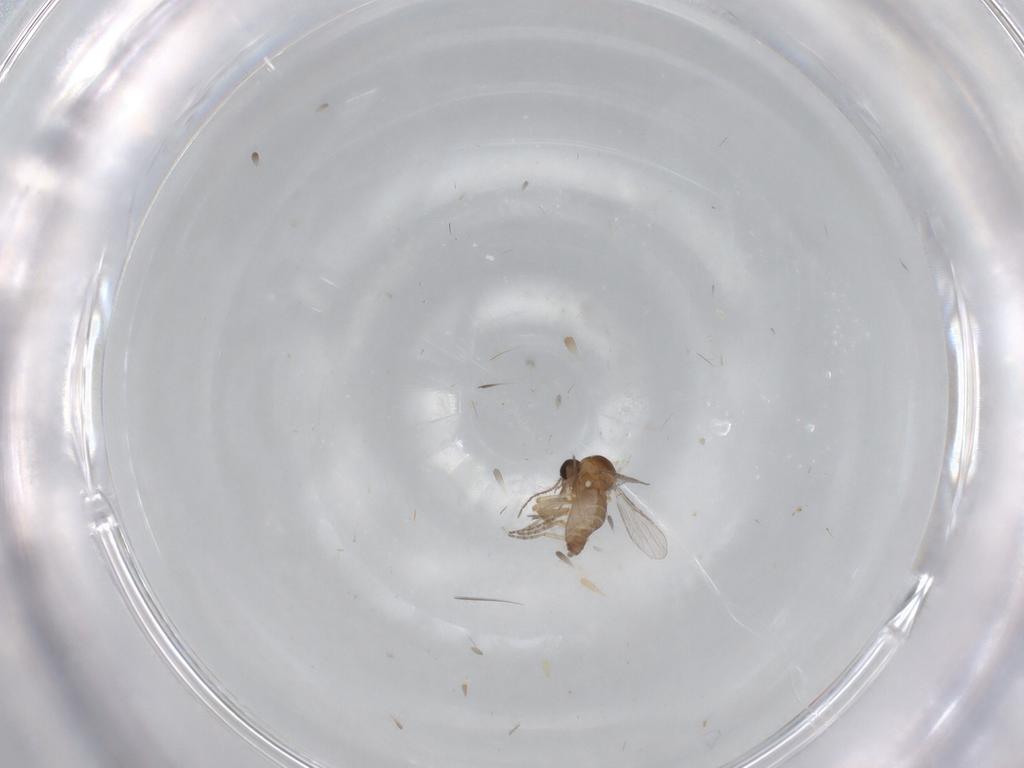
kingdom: Animalia
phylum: Arthropoda
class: Insecta
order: Diptera
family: Ceratopogonidae
